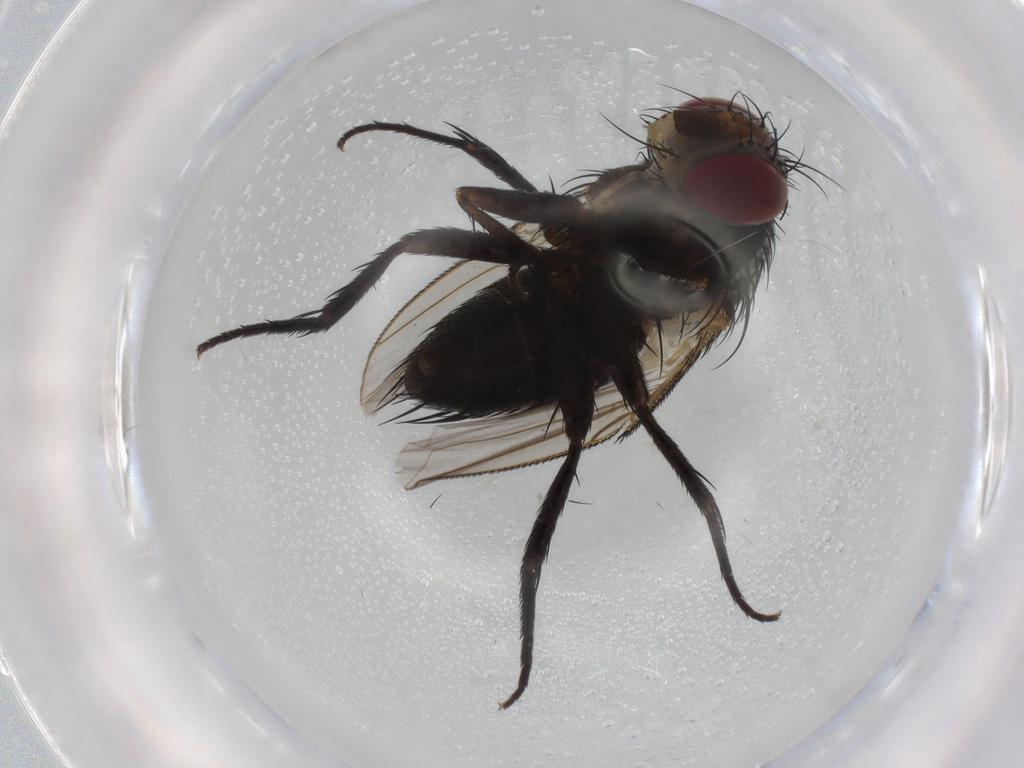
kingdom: Animalia
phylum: Arthropoda
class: Insecta
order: Diptera
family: Tachinidae
